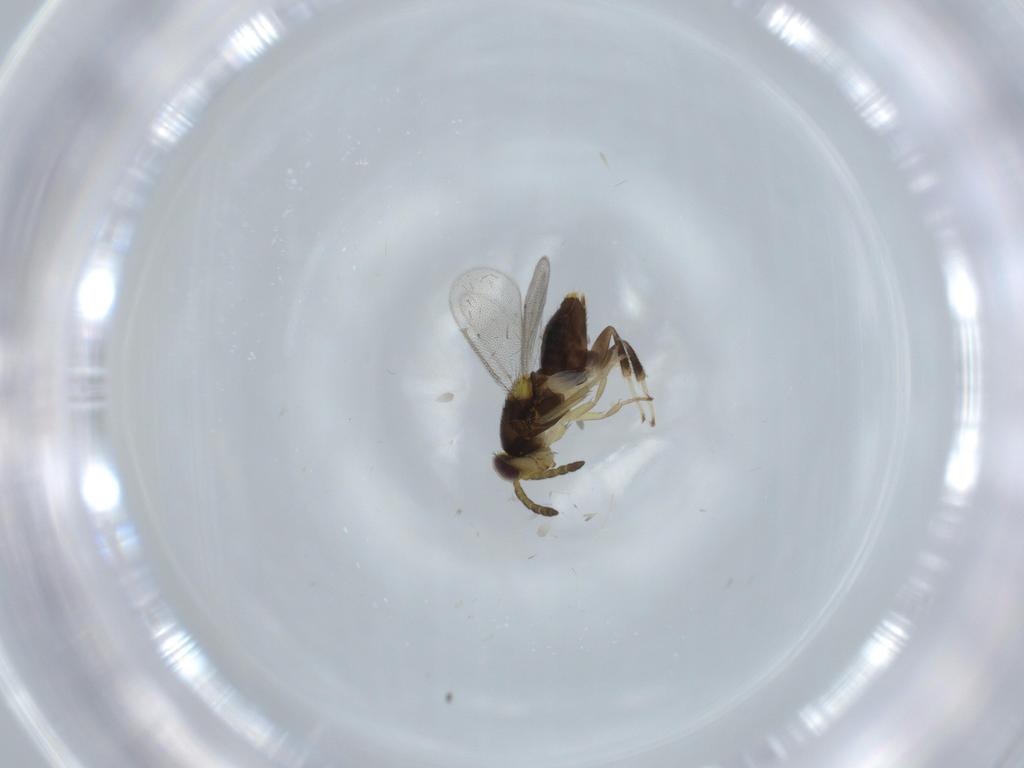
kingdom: Animalia
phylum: Arthropoda
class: Insecta
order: Hymenoptera
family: Aphelinidae
